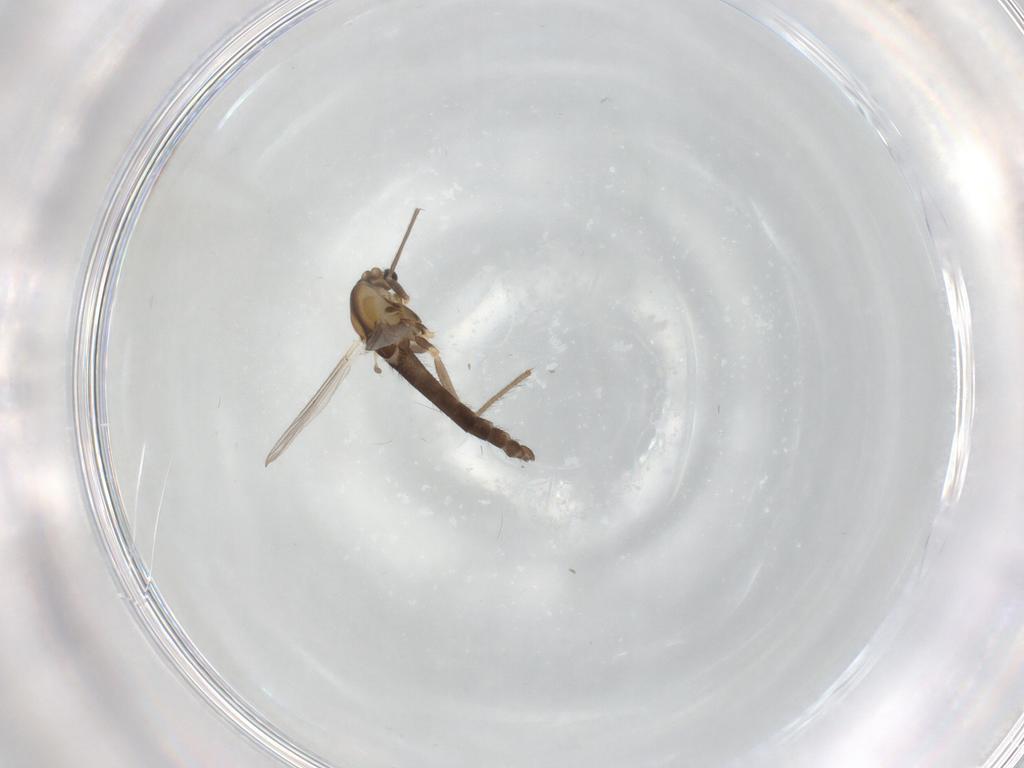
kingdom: Animalia
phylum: Arthropoda
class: Insecta
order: Diptera
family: Chironomidae
